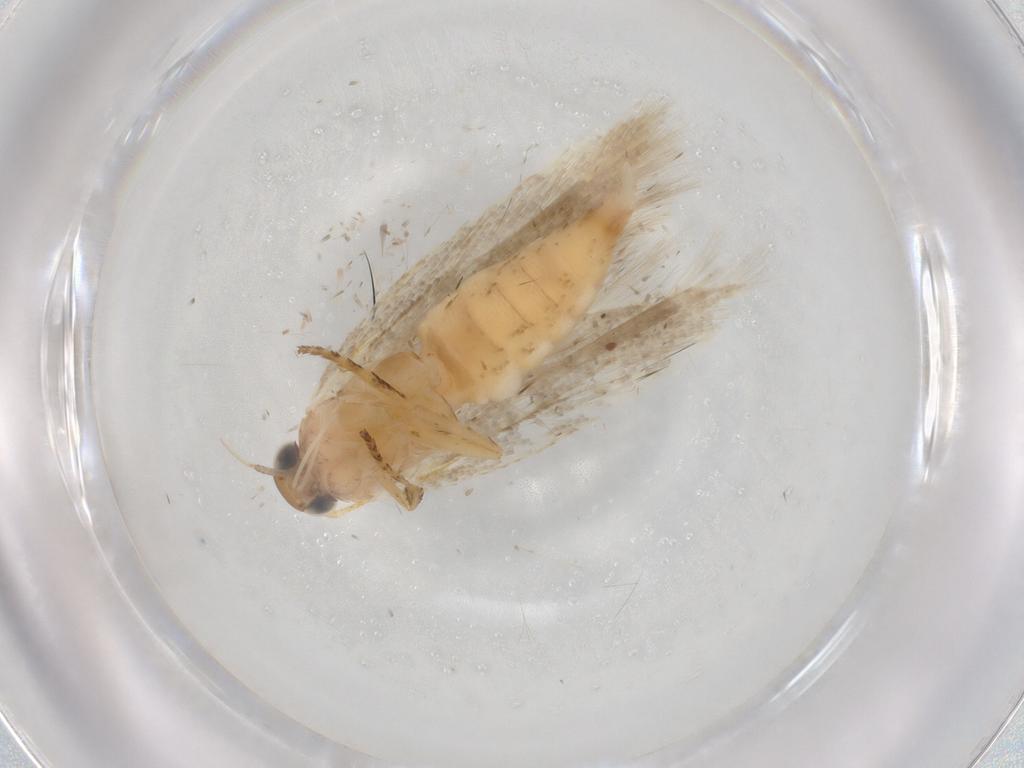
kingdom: Animalia
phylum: Arthropoda
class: Insecta
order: Lepidoptera
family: Gelechiidae
